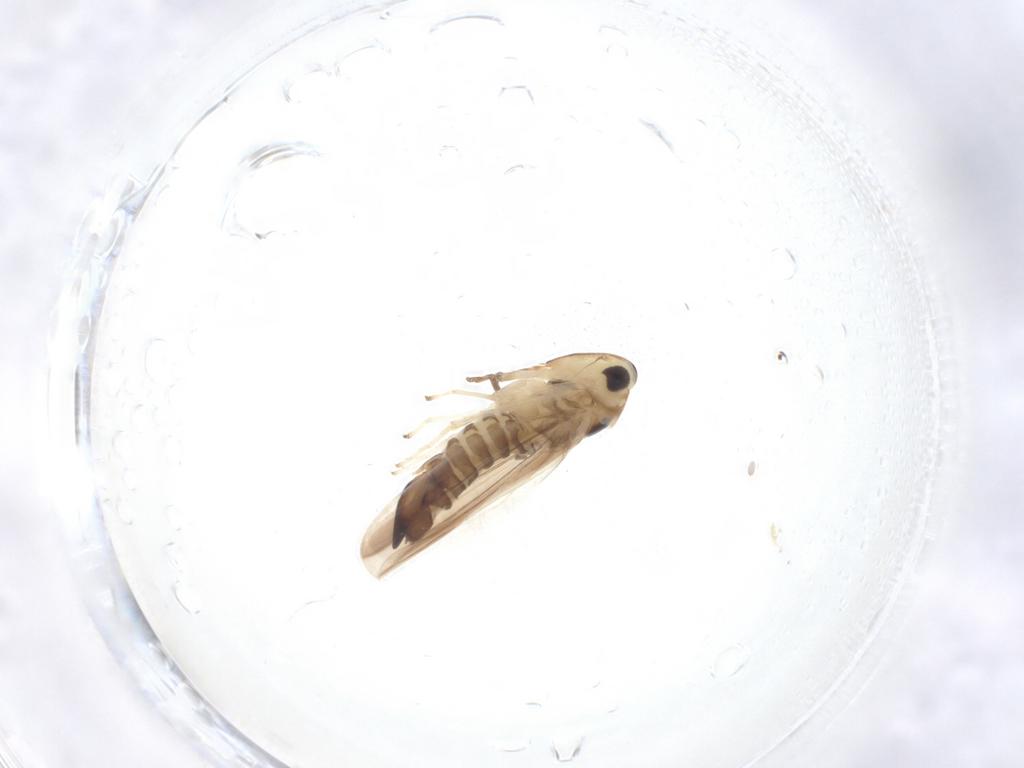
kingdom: Animalia
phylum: Arthropoda
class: Insecta
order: Hemiptera
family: Cicadellidae
